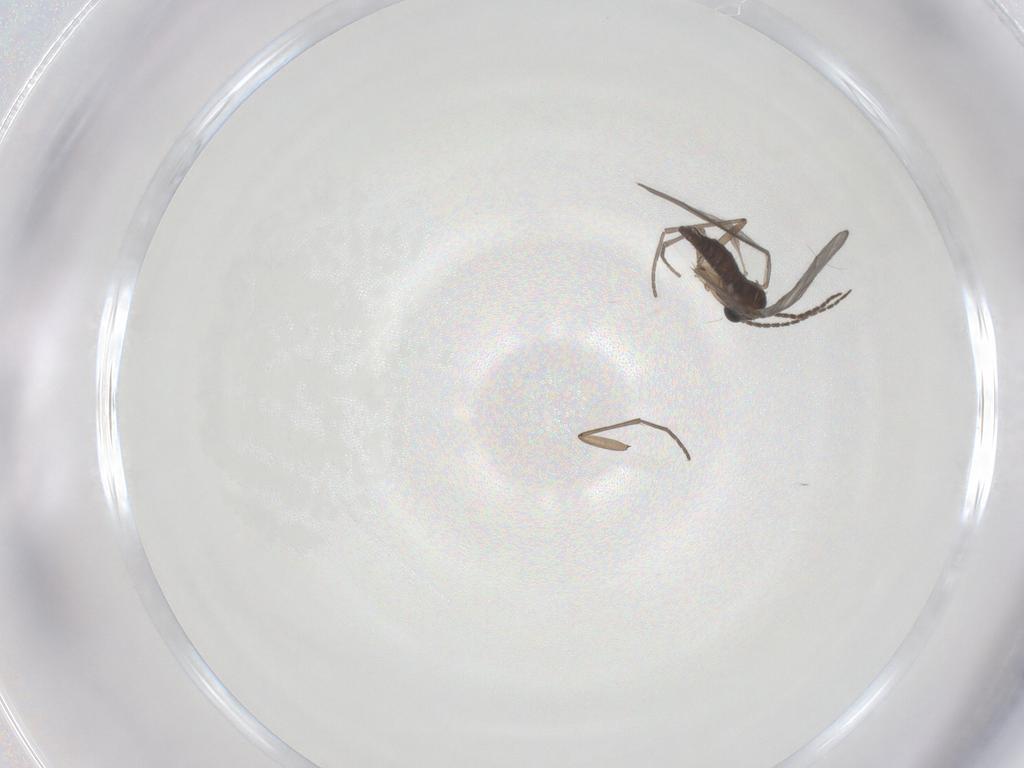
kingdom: Animalia
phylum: Arthropoda
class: Insecta
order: Diptera
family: Sciaridae
